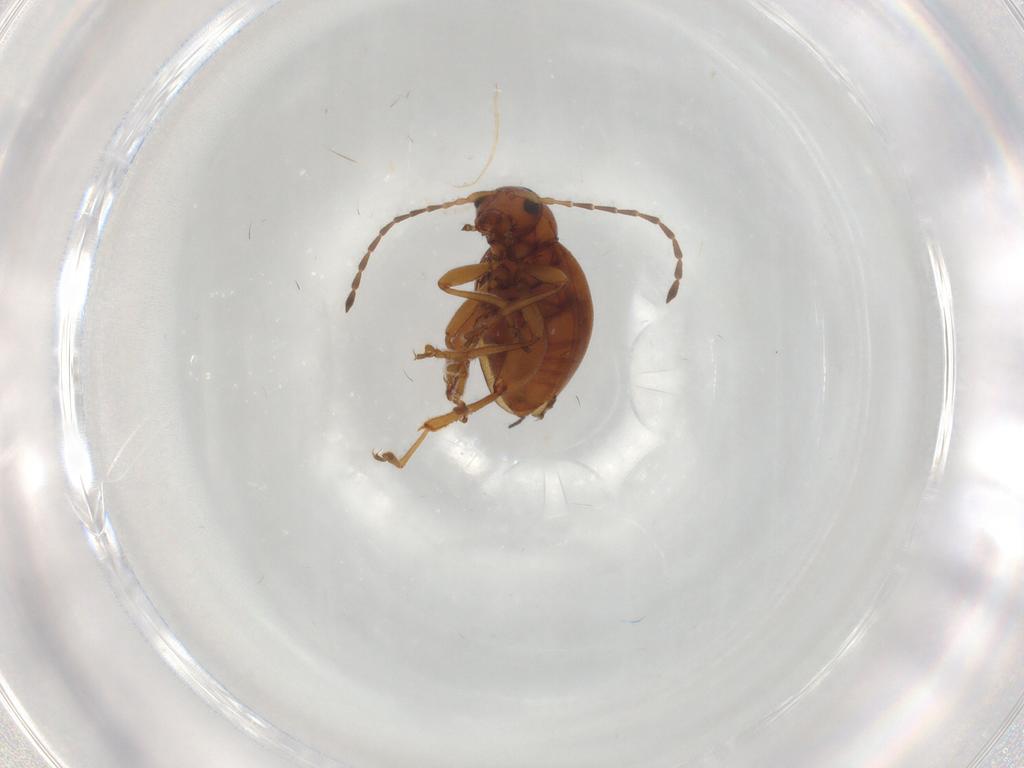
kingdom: Animalia
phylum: Arthropoda
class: Insecta
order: Coleoptera
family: Chrysomelidae
